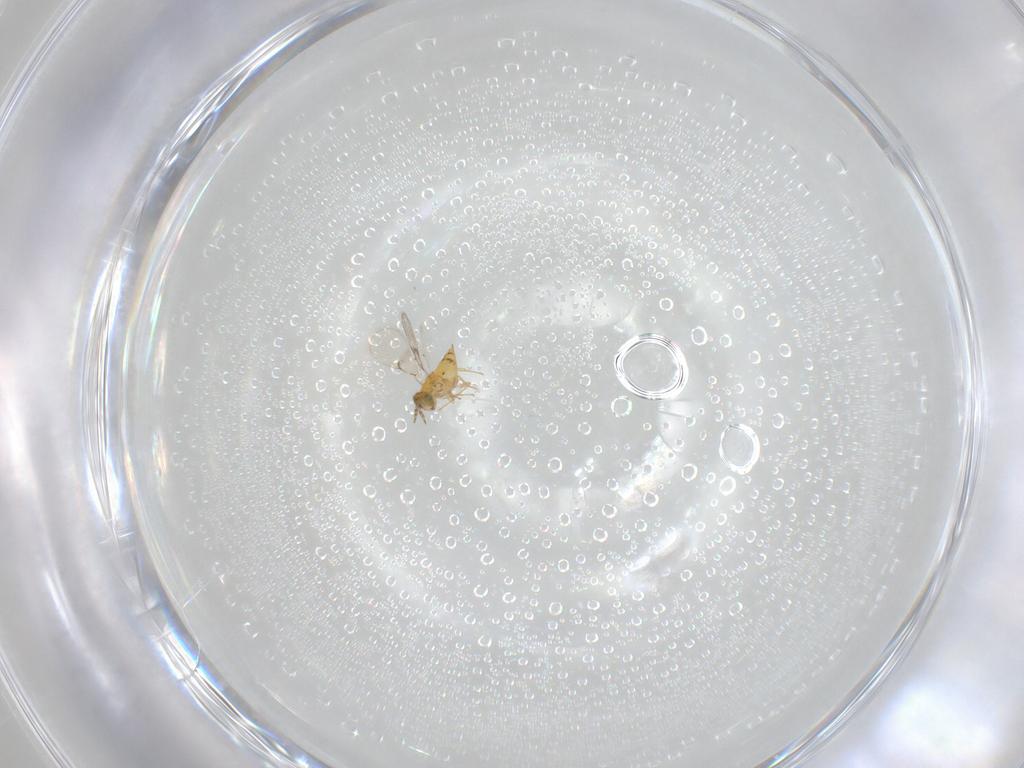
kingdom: Animalia
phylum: Arthropoda
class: Insecta
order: Hymenoptera
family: Trichogrammatidae
